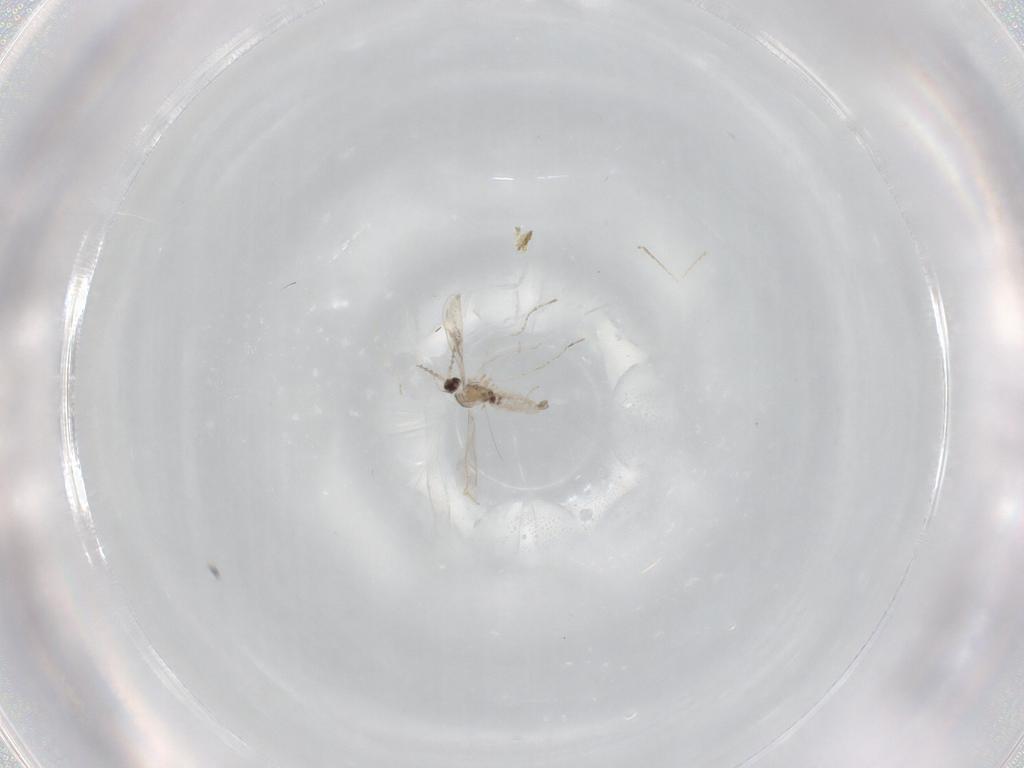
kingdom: Animalia
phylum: Arthropoda
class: Insecta
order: Diptera
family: Cecidomyiidae
